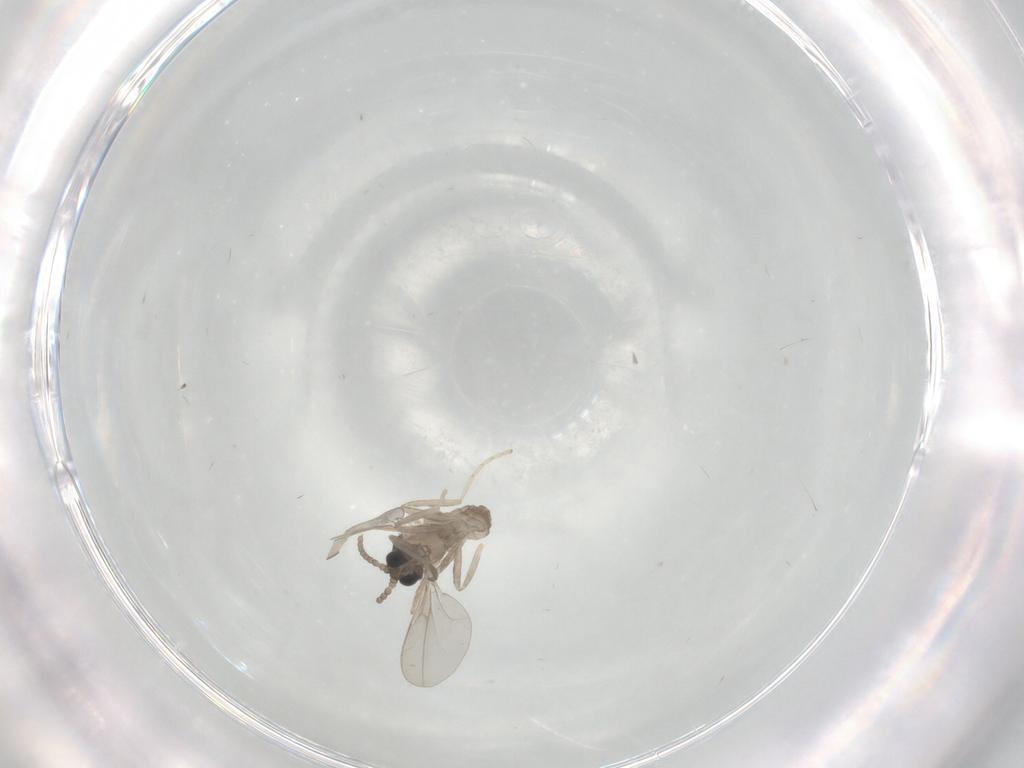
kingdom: Animalia
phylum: Arthropoda
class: Insecta
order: Diptera
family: Cecidomyiidae
